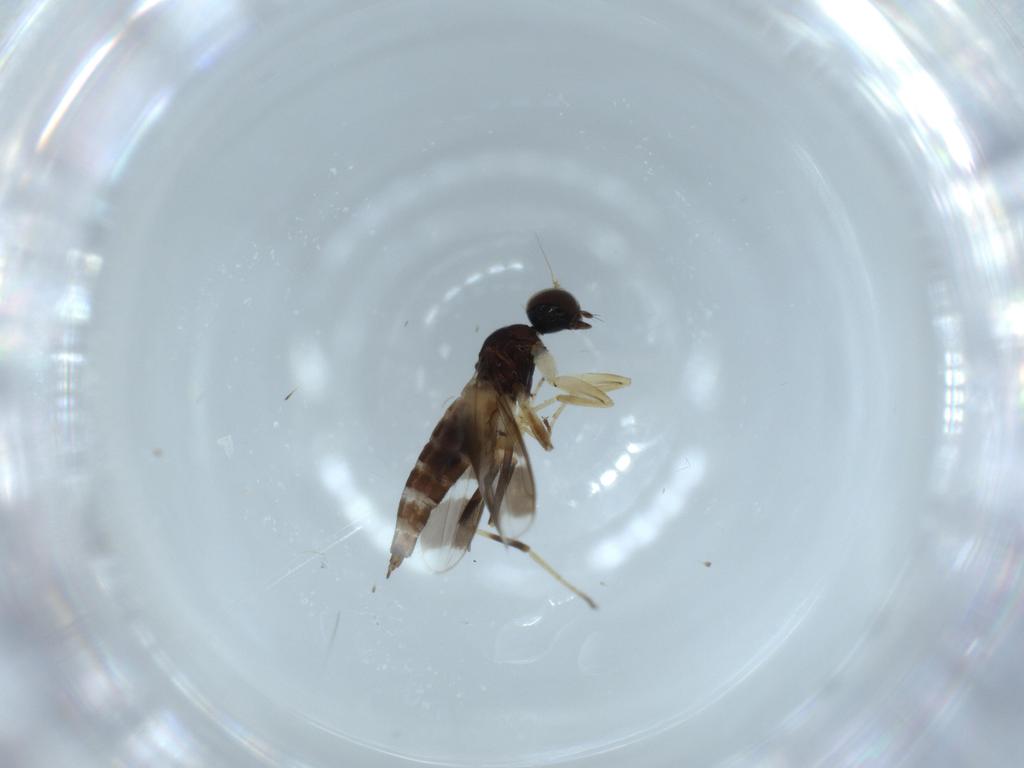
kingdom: Animalia
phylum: Arthropoda
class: Insecta
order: Diptera
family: Hybotidae
